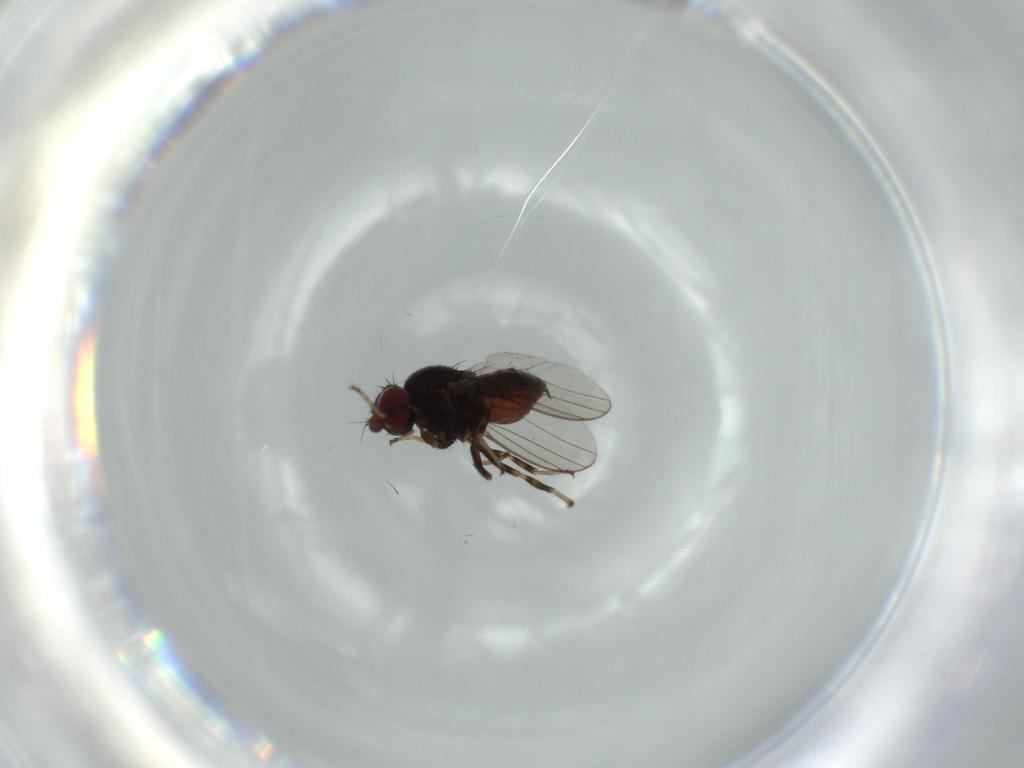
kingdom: Animalia
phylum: Arthropoda
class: Insecta
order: Diptera
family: Chloropidae
